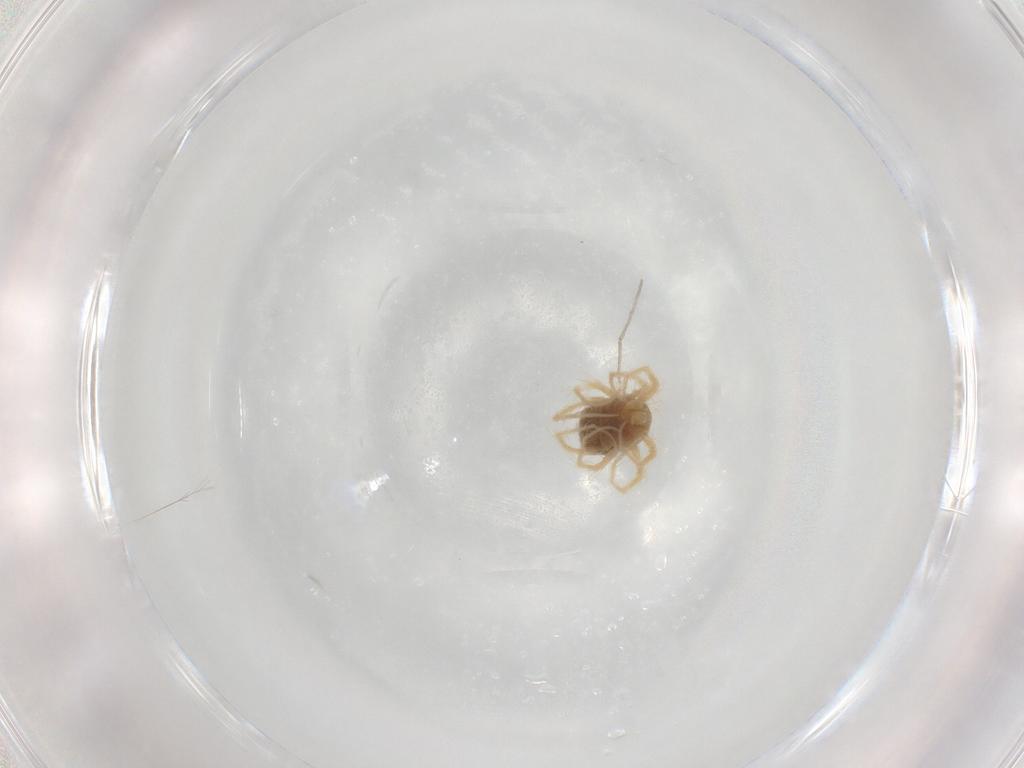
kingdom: Animalia
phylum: Arthropoda
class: Arachnida
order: Trombidiformes
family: Anystidae
